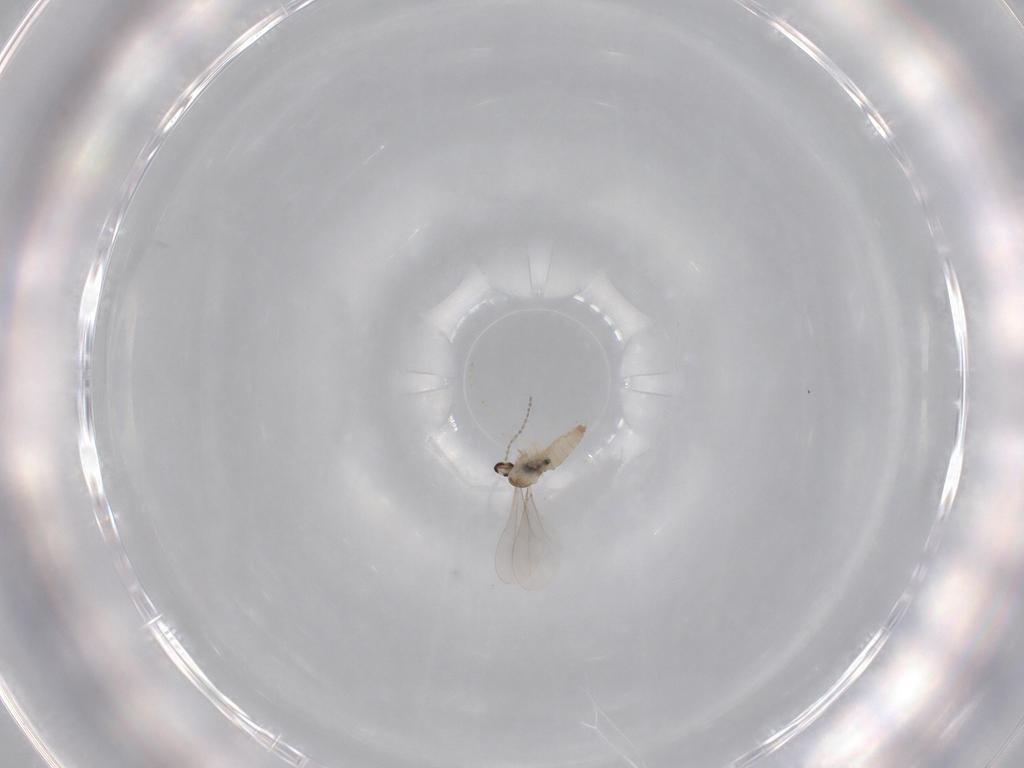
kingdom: Animalia
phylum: Arthropoda
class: Insecta
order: Diptera
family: Cecidomyiidae
